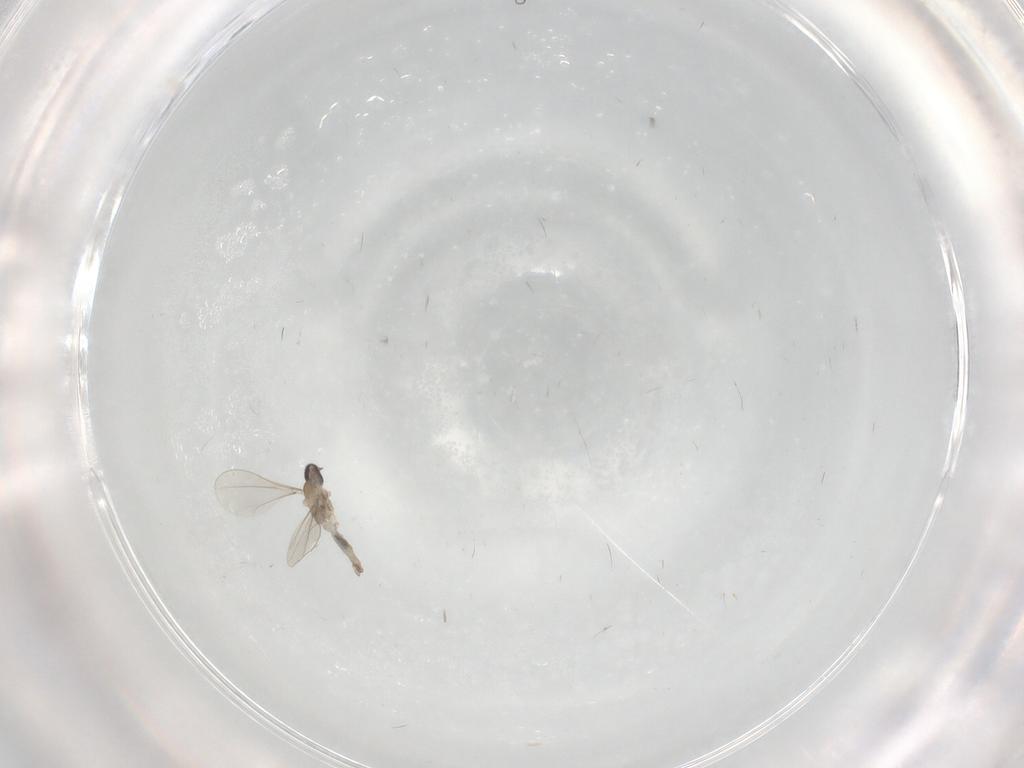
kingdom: Animalia
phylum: Arthropoda
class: Insecta
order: Diptera
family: Cecidomyiidae
